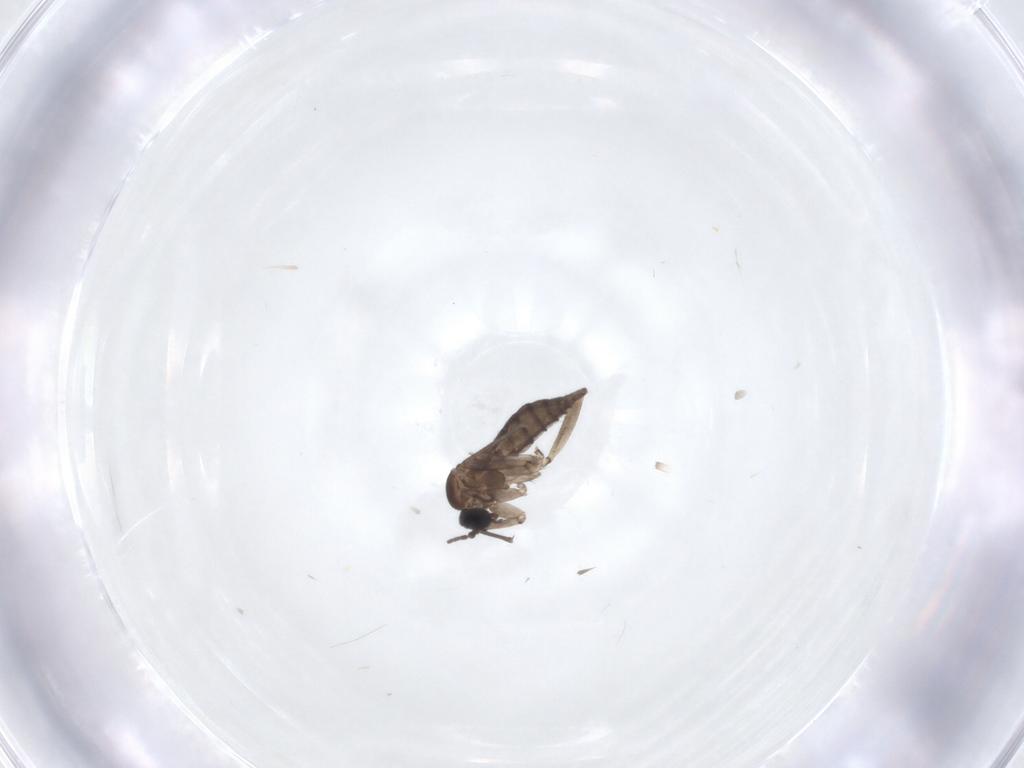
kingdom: Animalia
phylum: Arthropoda
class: Insecta
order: Diptera
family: Sciaridae
